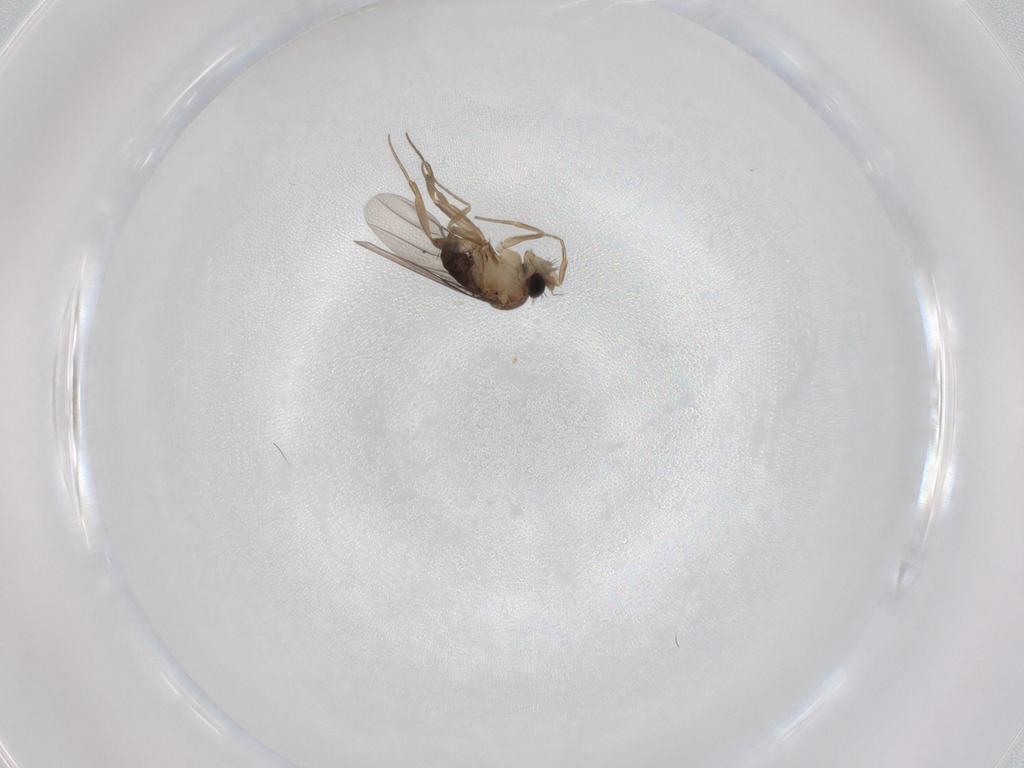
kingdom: Animalia
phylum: Arthropoda
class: Insecta
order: Diptera
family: Phoridae
